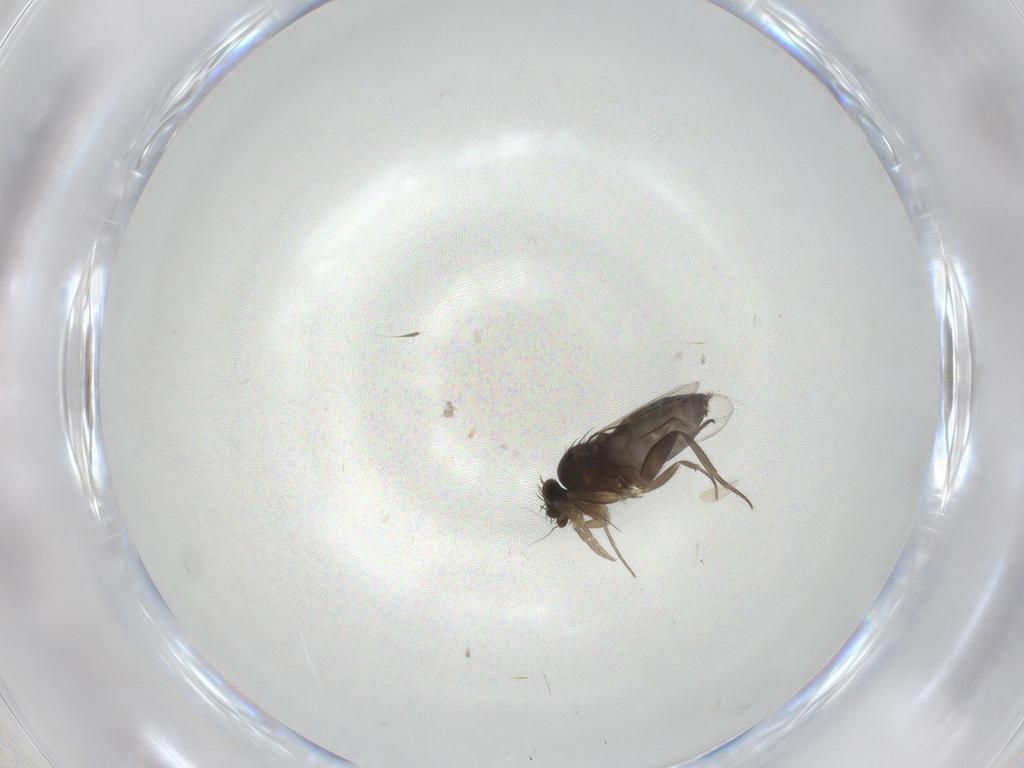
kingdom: Animalia
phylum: Arthropoda
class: Insecta
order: Diptera
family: Phoridae
